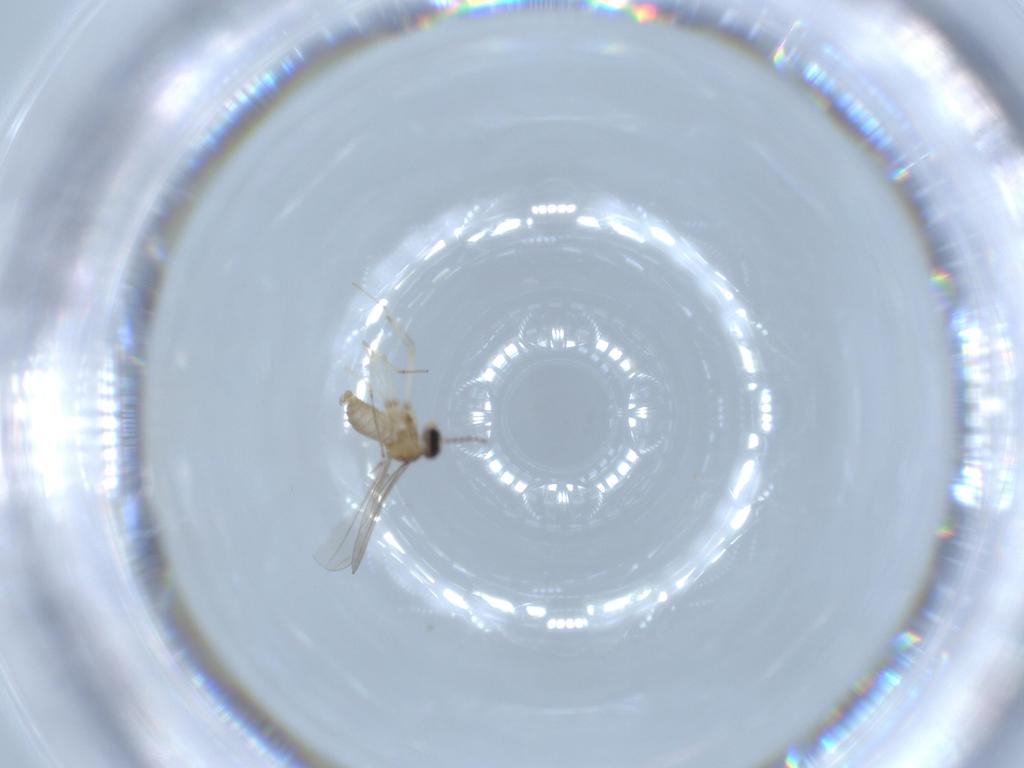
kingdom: Animalia
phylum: Arthropoda
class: Insecta
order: Diptera
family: Cecidomyiidae
